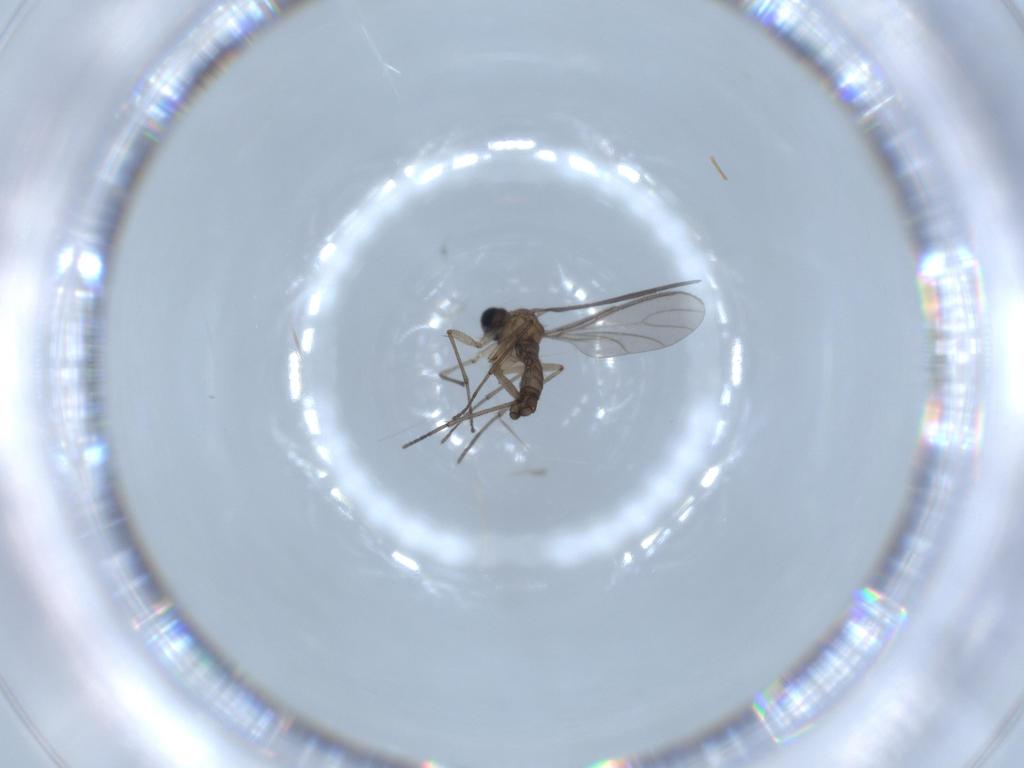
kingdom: Animalia
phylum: Arthropoda
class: Insecta
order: Diptera
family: Sciaridae
